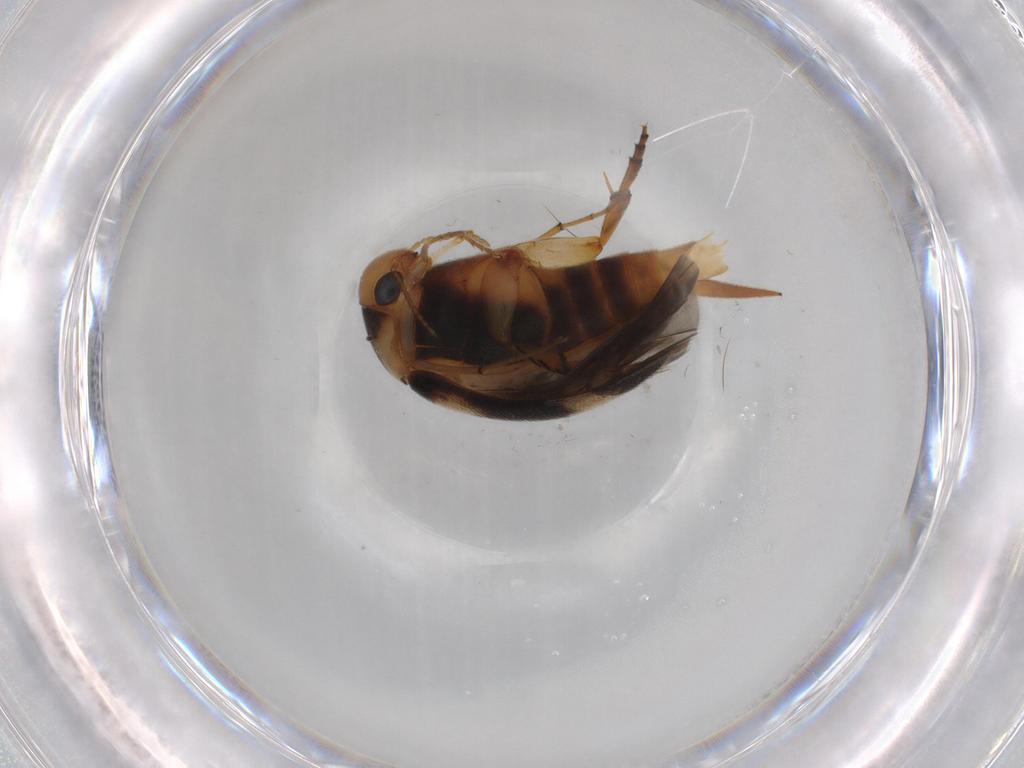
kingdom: Animalia
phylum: Arthropoda
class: Insecta
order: Coleoptera
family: Mordellidae
